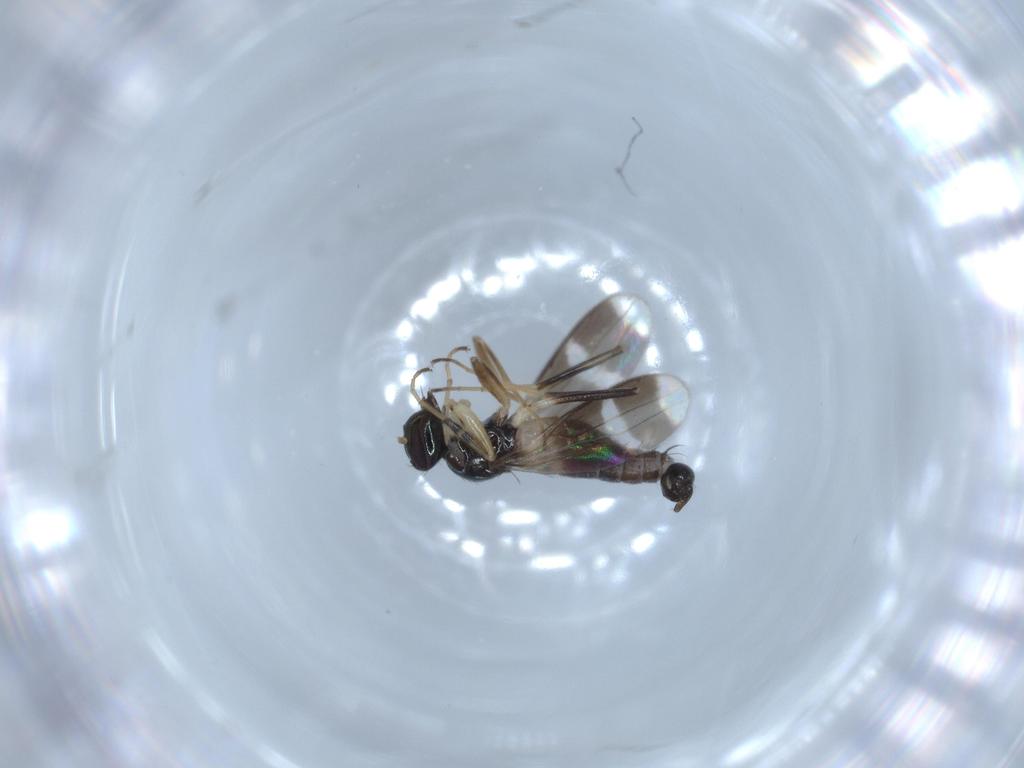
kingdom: Animalia
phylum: Arthropoda
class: Insecta
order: Diptera
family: Hybotidae
